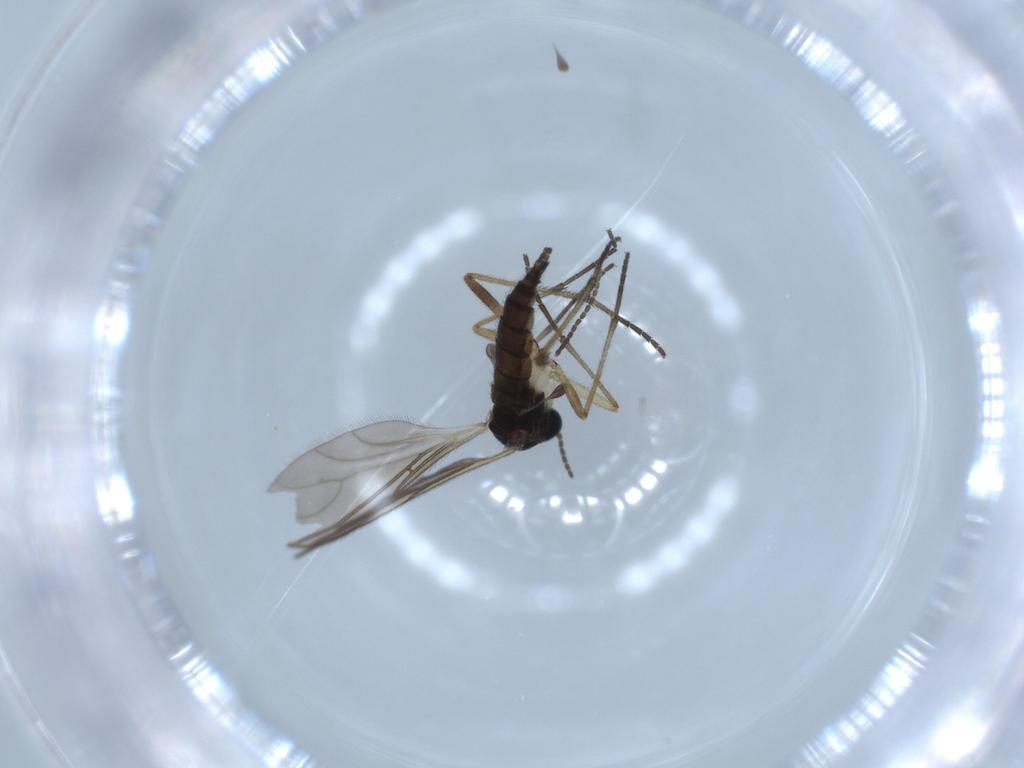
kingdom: Animalia
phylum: Arthropoda
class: Insecta
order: Diptera
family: Sciaridae
